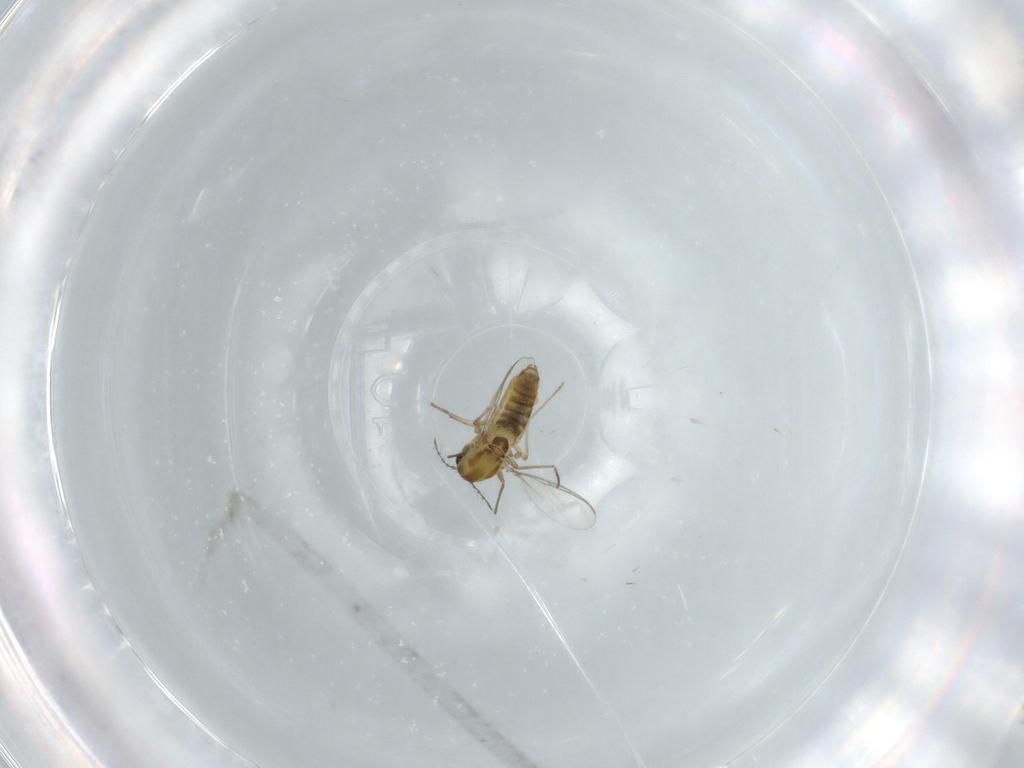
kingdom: Animalia
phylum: Arthropoda
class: Insecta
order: Diptera
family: Chironomidae
